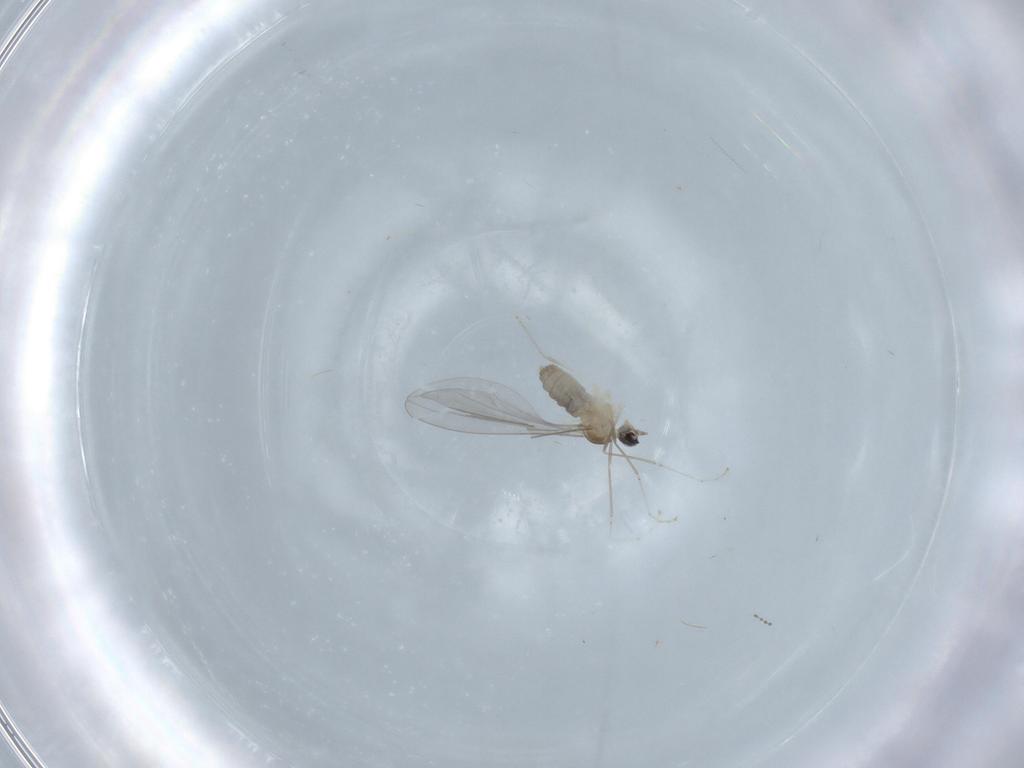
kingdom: Animalia
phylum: Arthropoda
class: Insecta
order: Diptera
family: Cecidomyiidae
